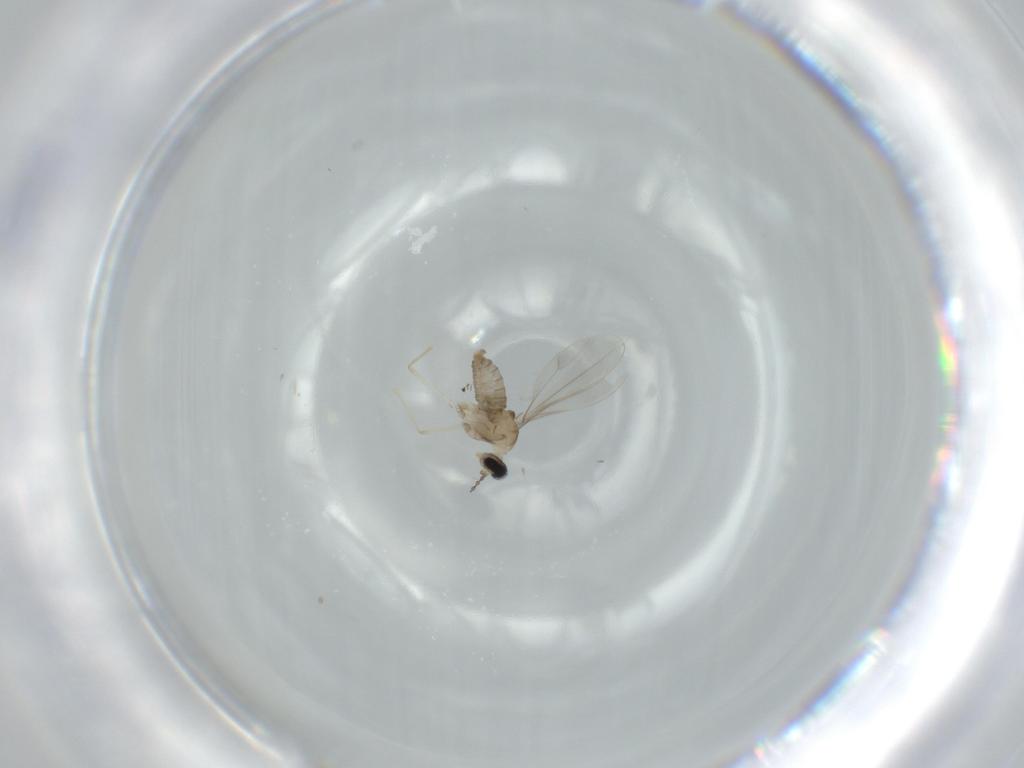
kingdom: Animalia
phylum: Arthropoda
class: Insecta
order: Diptera
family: Cecidomyiidae
